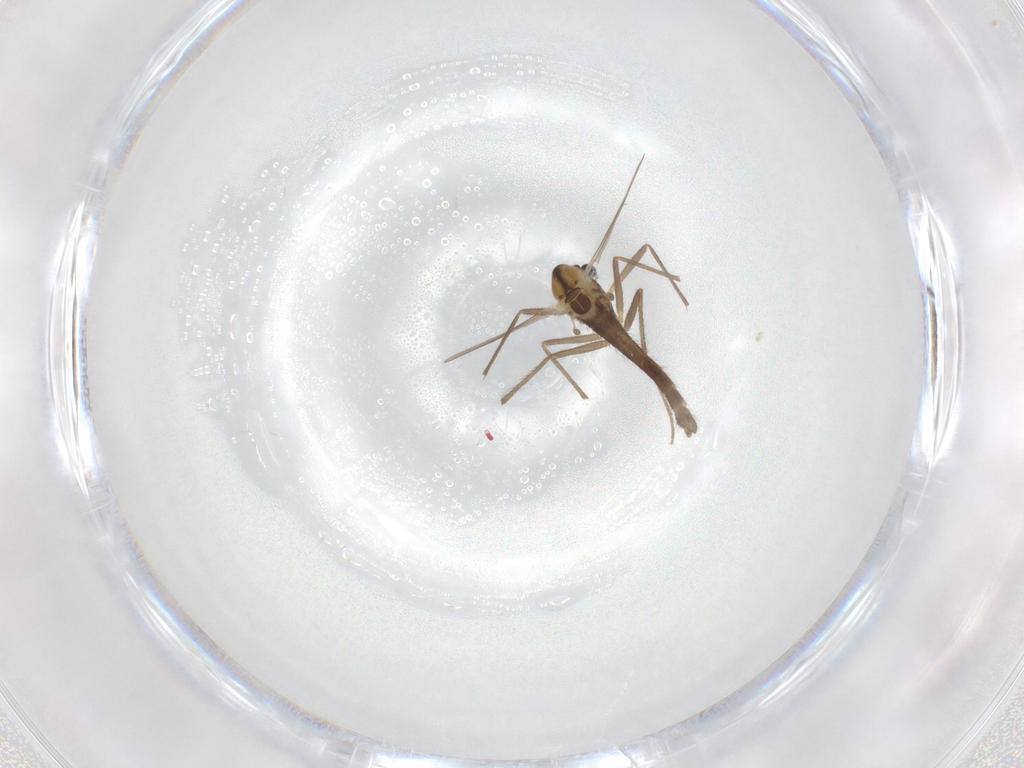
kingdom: Animalia
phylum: Arthropoda
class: Insecta
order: Diptera
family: Chironomidae
